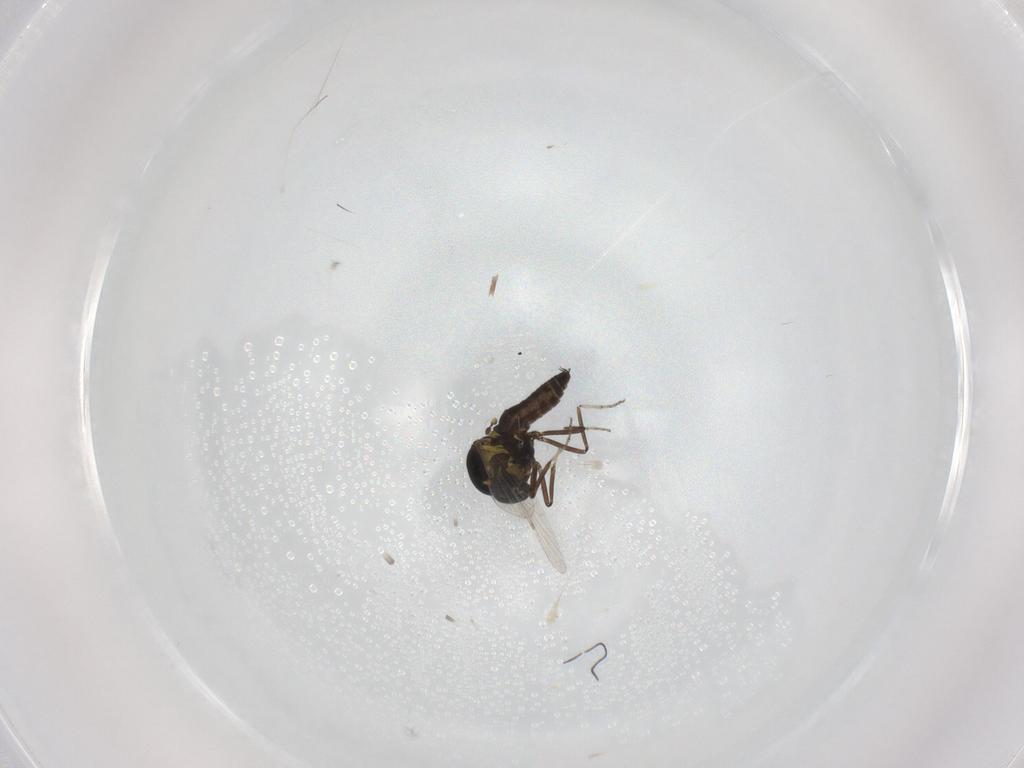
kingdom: Animalia
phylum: Arthropoda
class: Insecta
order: Diptera
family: Ceratopogonidae
